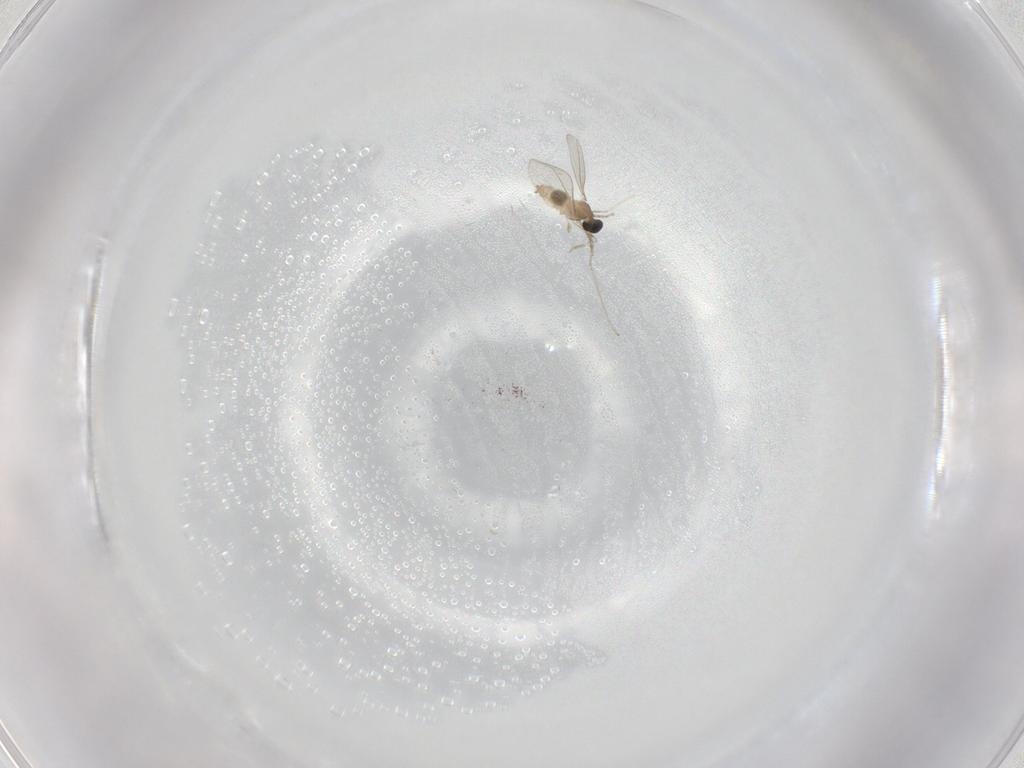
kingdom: Animalia
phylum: Arthropoda
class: Insecta
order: Diptera
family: Cecidomyiidae
